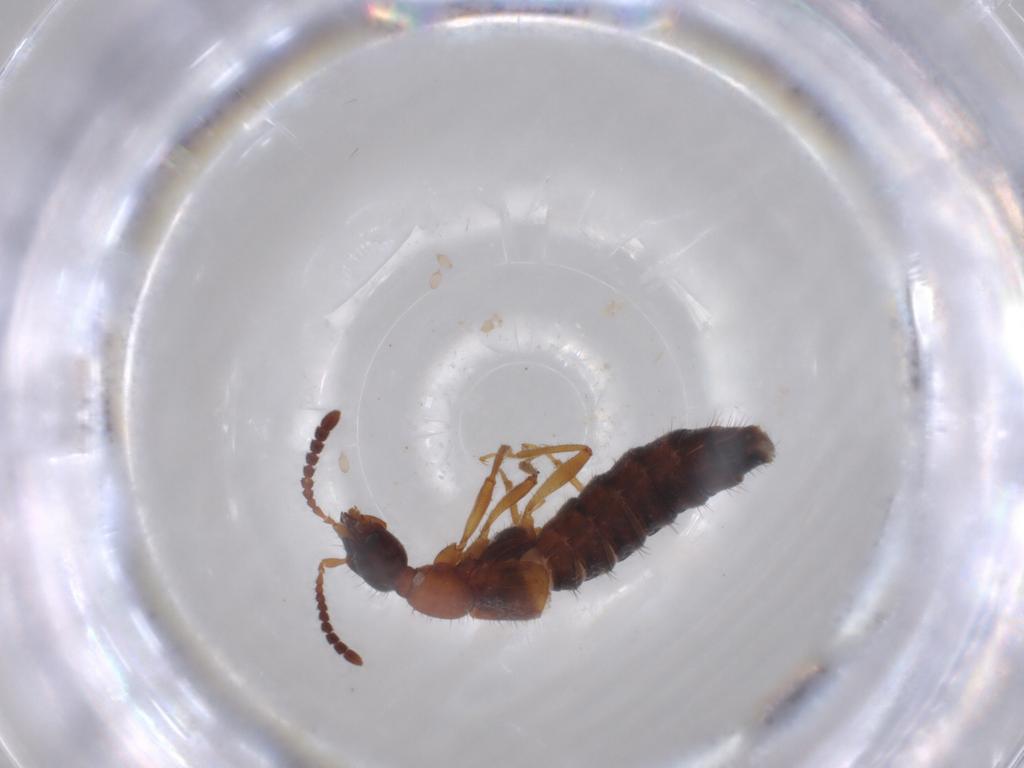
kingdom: Animalia
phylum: Arthropoda
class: Insecta
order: Coleoptera
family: Staphylinidae
